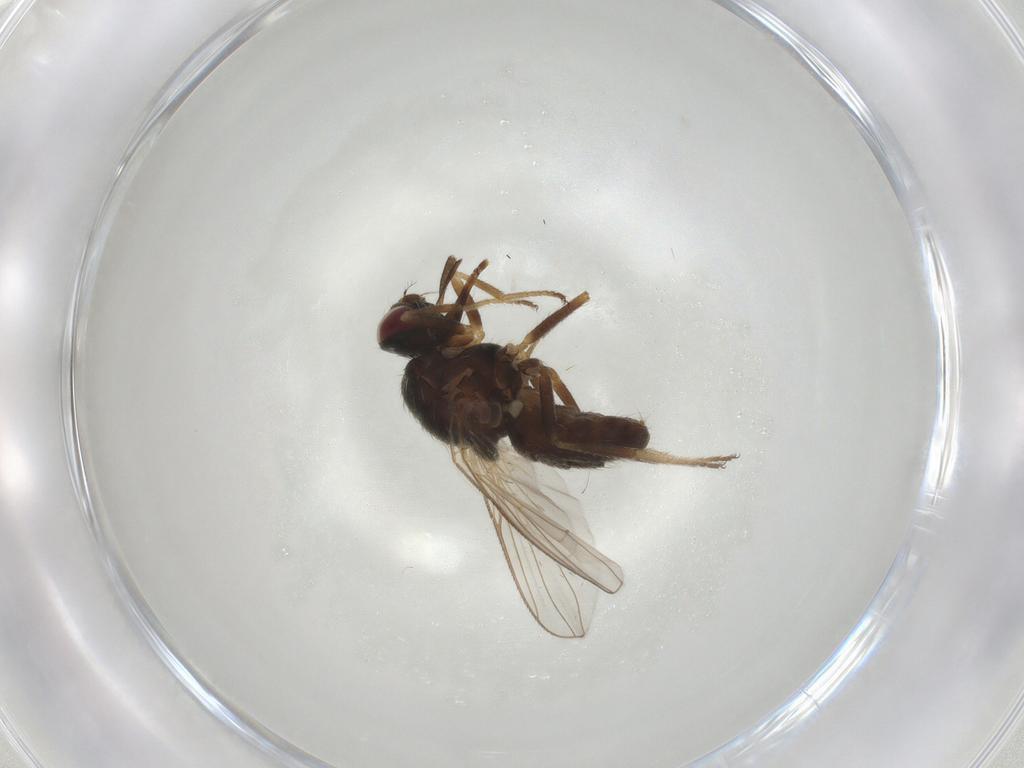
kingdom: Animalia
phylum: Arthropoda
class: Insecta
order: Diptera
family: Muscidae
